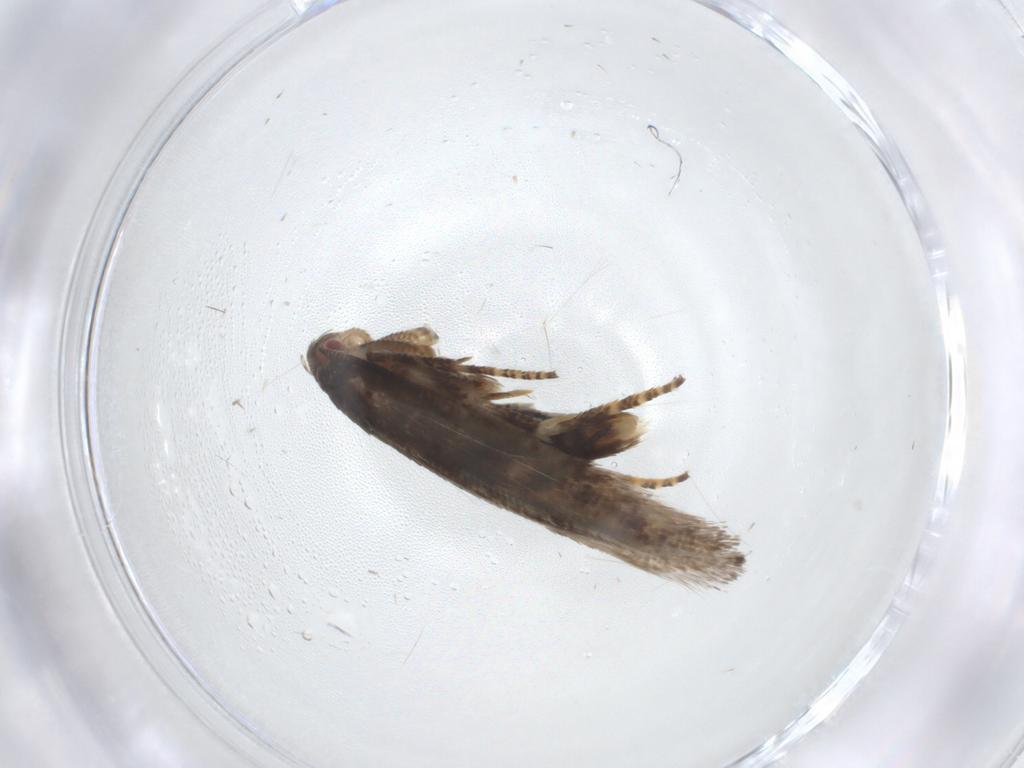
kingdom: Animalia
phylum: Arthropoda
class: Insecta
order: Lepidoptera
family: Momphidae
